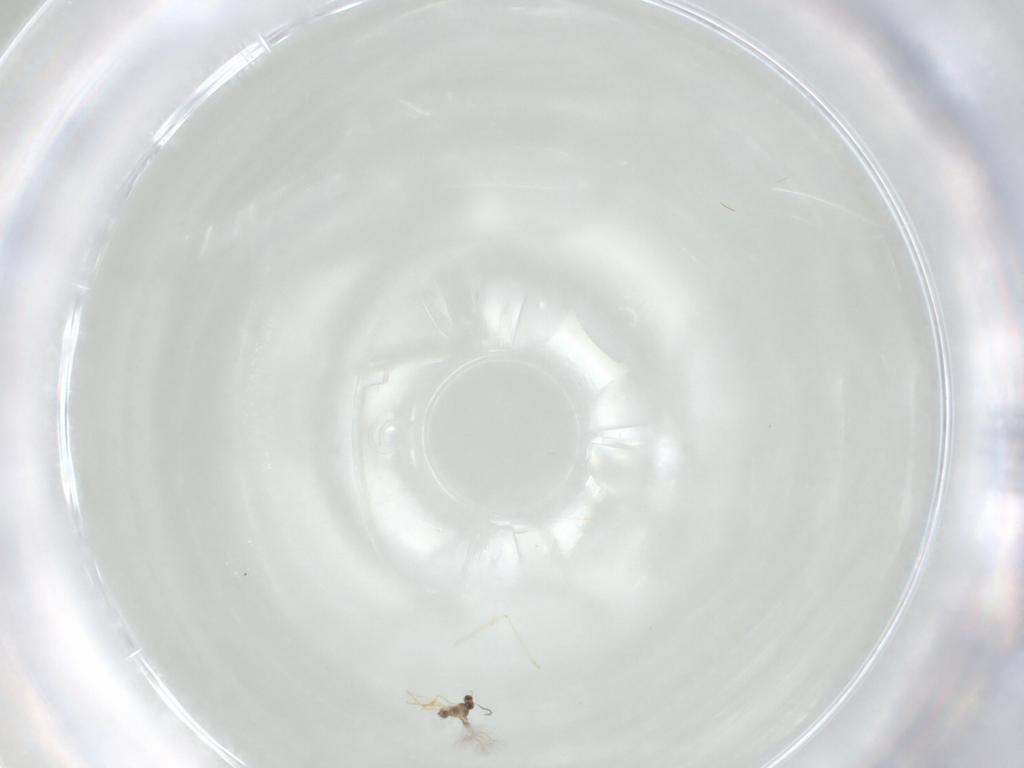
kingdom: Animalia
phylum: Arthropoda
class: Insecta
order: Hymenoptera
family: Mymaridae
